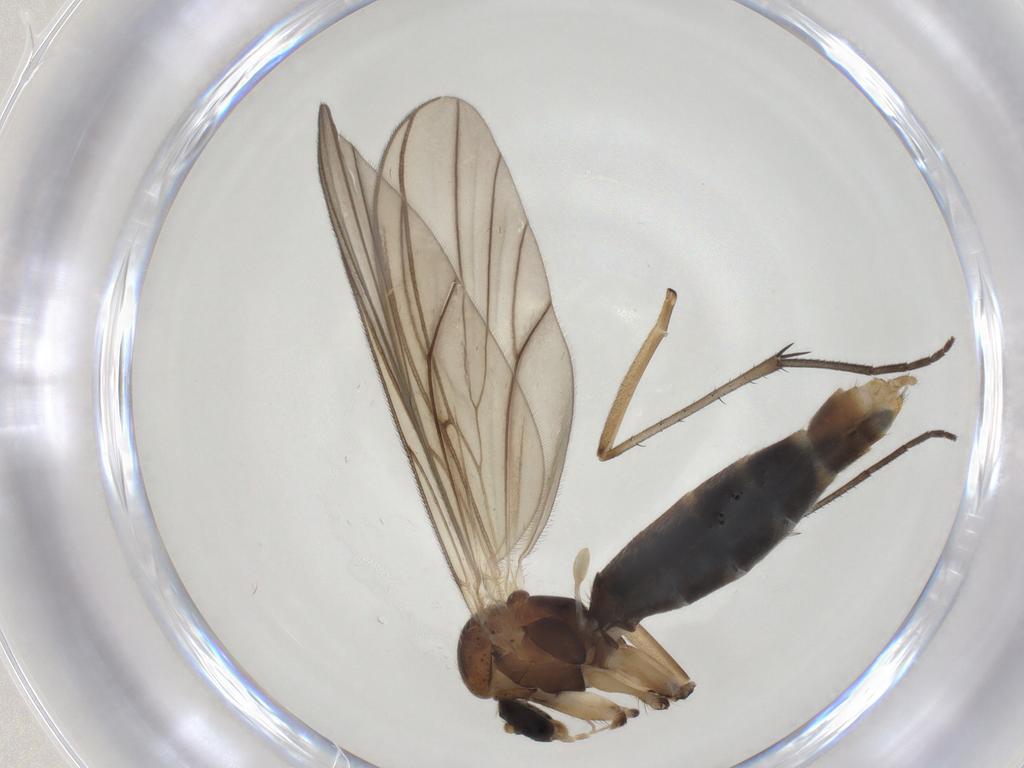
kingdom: Animalia
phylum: Arthropoda
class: Insecta
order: Diptera
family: Mycetophilidae
